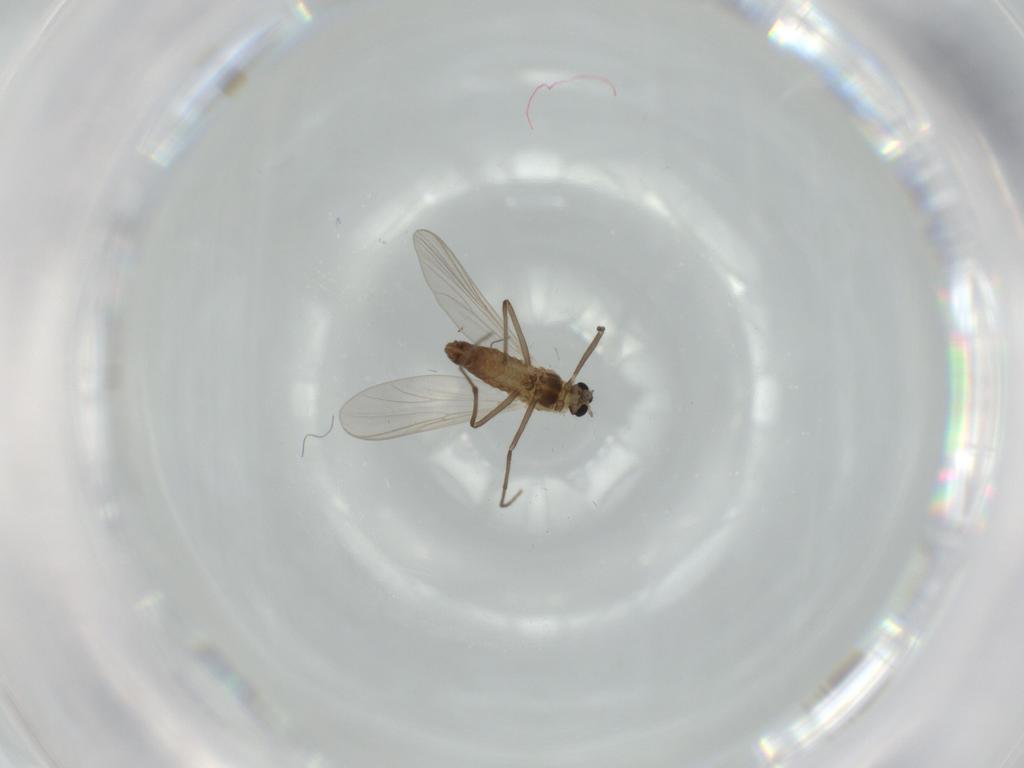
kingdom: Animalia
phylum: Arthropoda
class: Insecta
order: Diptera
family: Chironomidae
